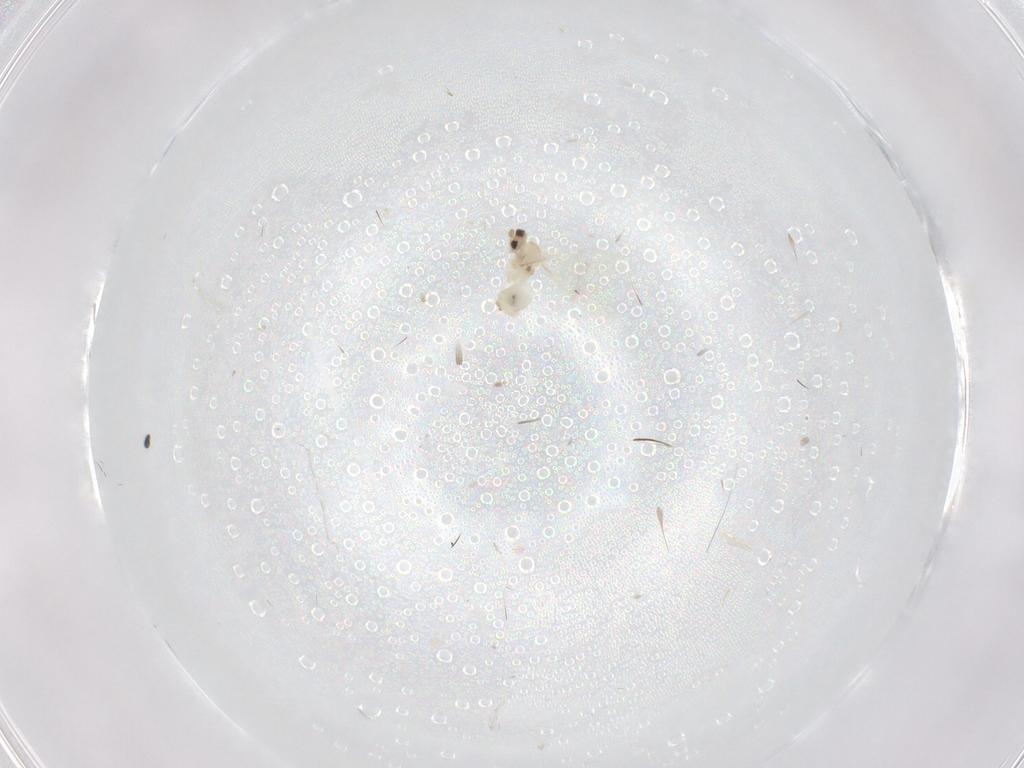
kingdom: Animalia
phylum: Arthropoda
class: Insecta
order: Diptera
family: Cecidomyiidae
